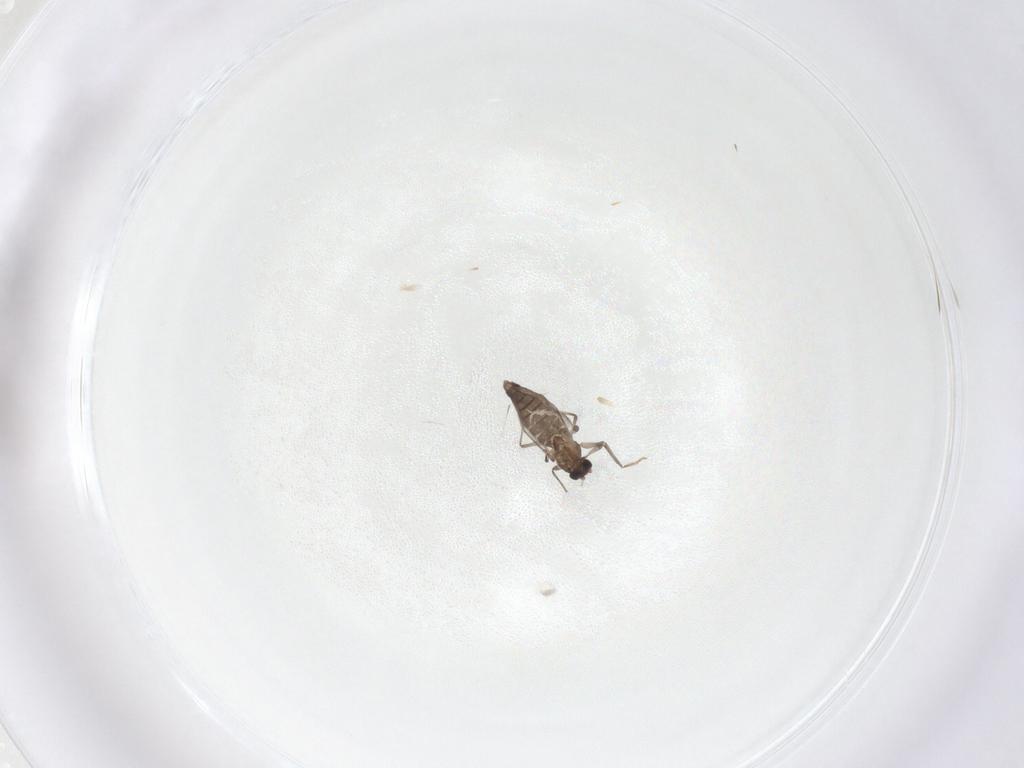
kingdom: Animalia
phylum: Arthropoda
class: Insecta
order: Diptera
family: Chironomidae
